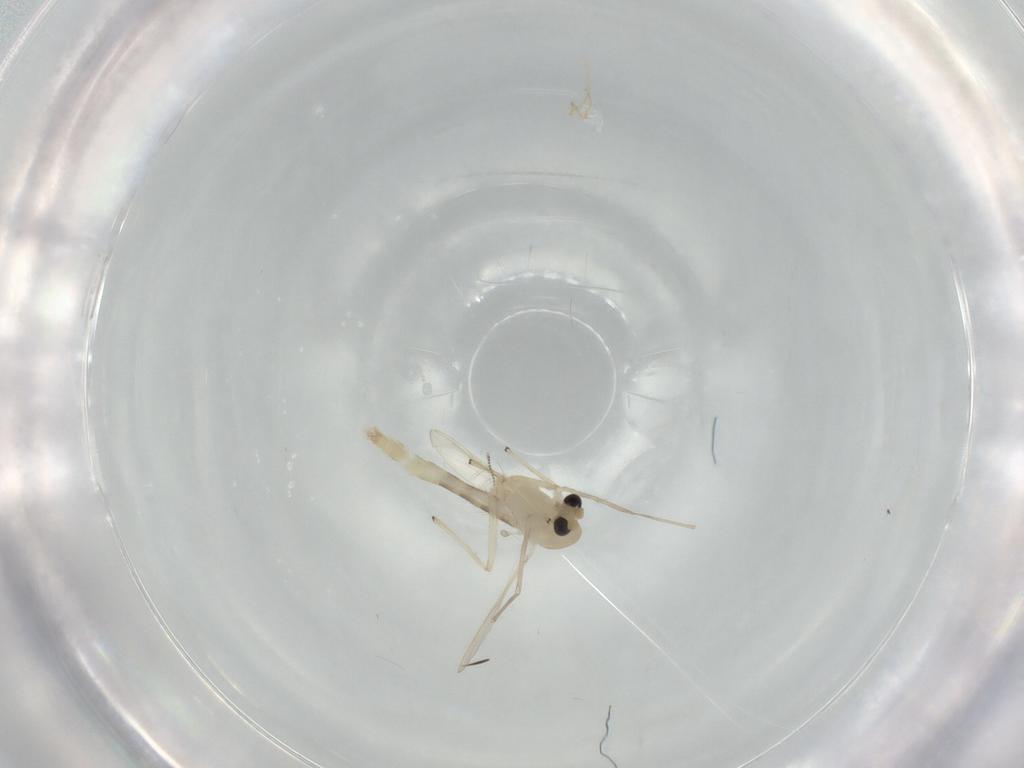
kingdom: Animalia
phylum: Arthropoda
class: Insecta
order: Diptera
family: Chironomidae
